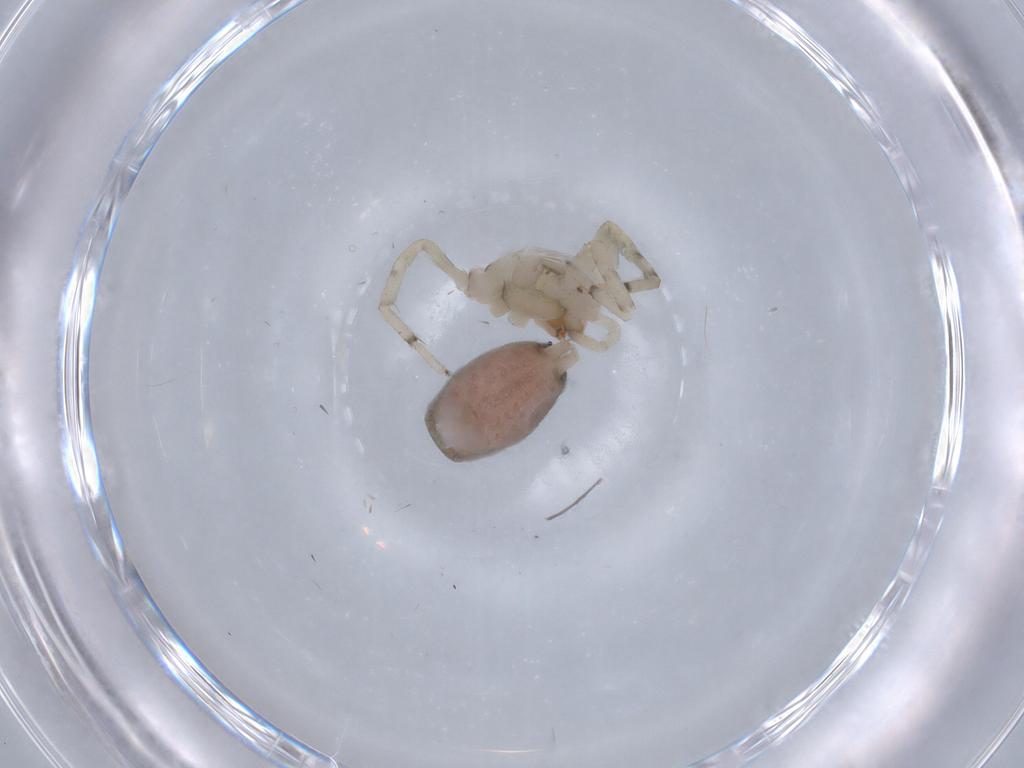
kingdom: Animalia
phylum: Arthropoda
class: Arachnida
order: Araneae
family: Gnaphosidae
